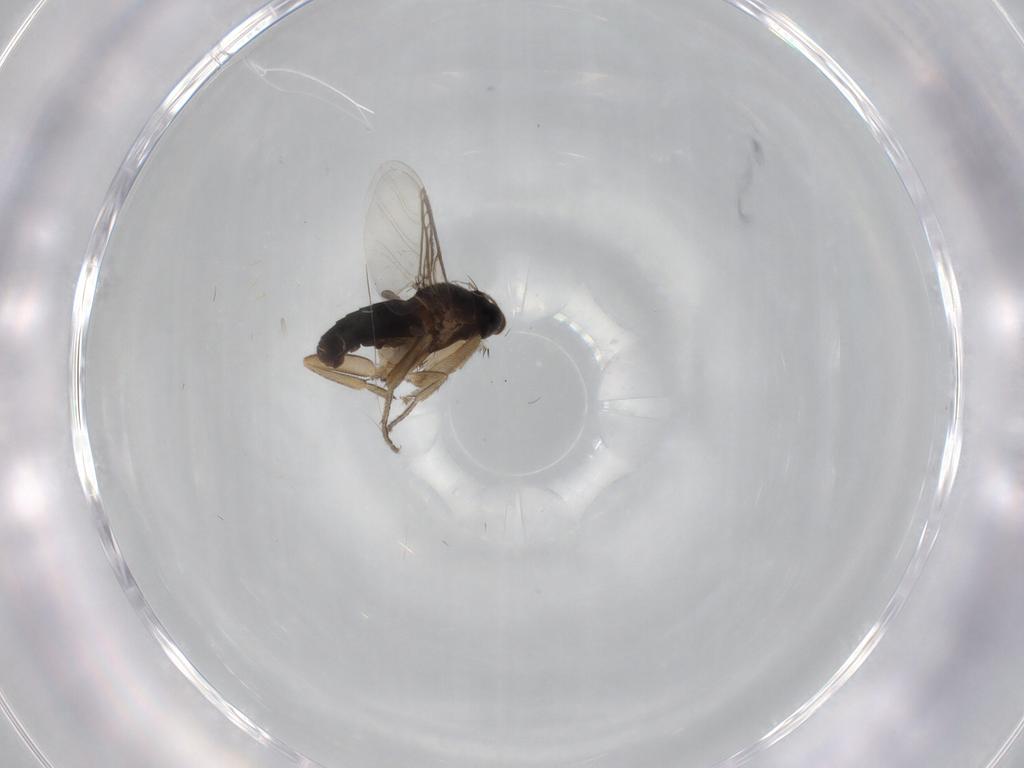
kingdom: Animalia
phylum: Arthropoda
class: Insecta
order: Diptera
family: Phoridae
